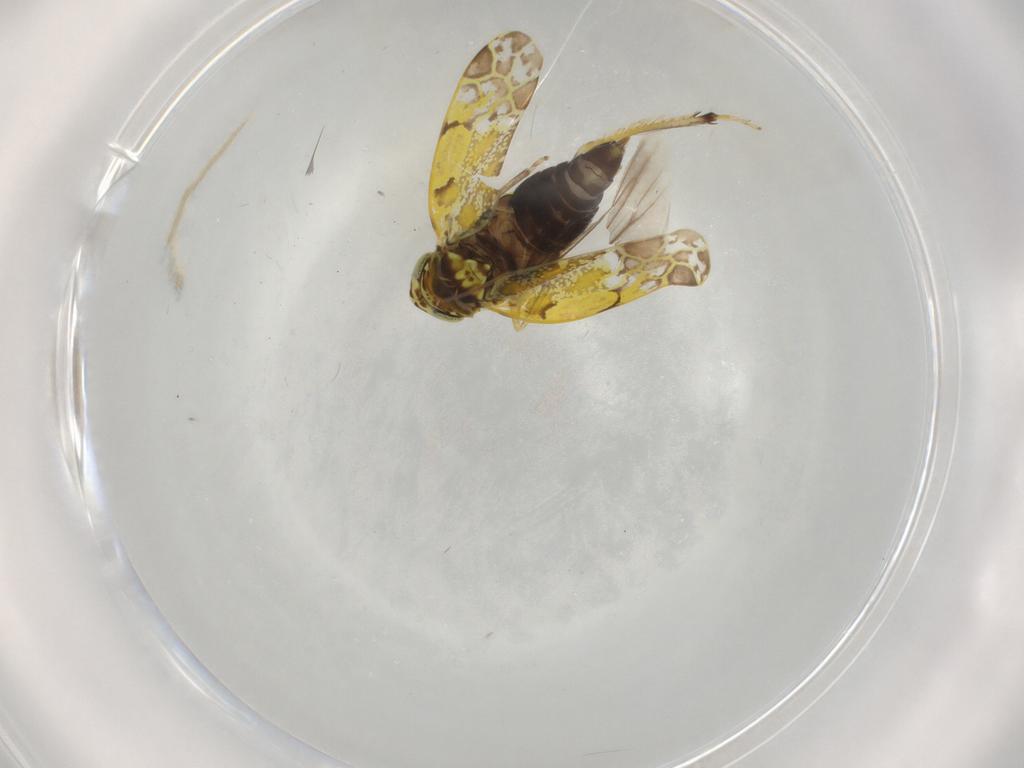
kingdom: Animalia
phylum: Arthropoda
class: Insecta
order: Hemiptera
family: Cicadellidae
